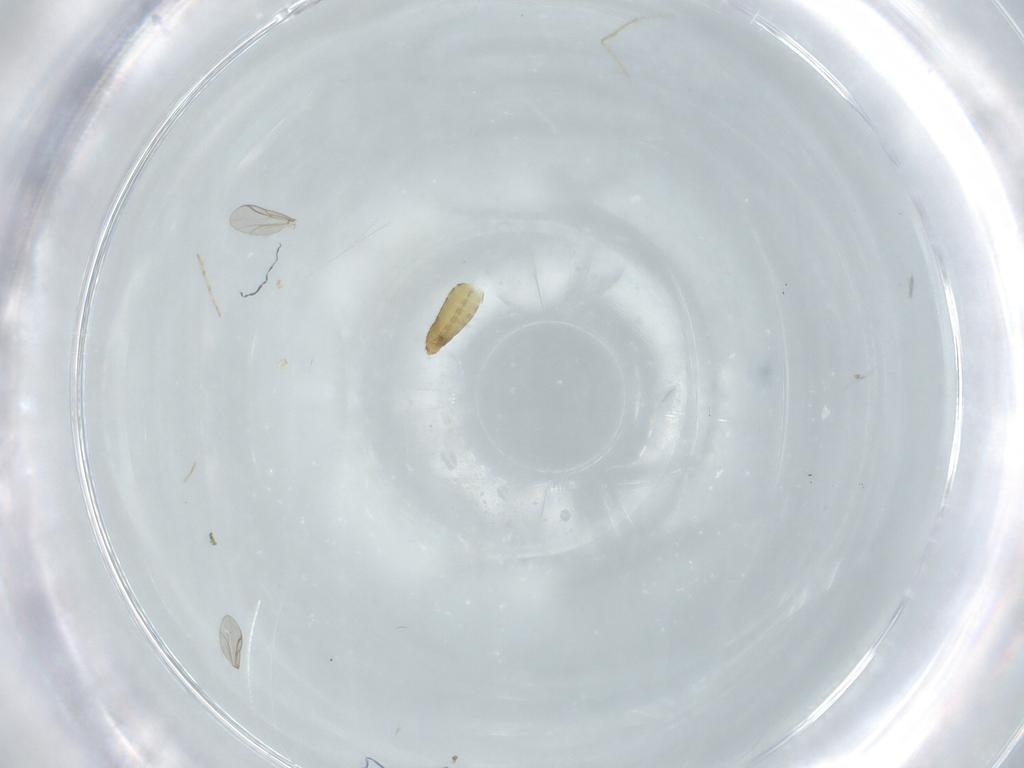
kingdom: Animalia
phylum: Arthropoda
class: Insecta
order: Diptera
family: Chironomidae
